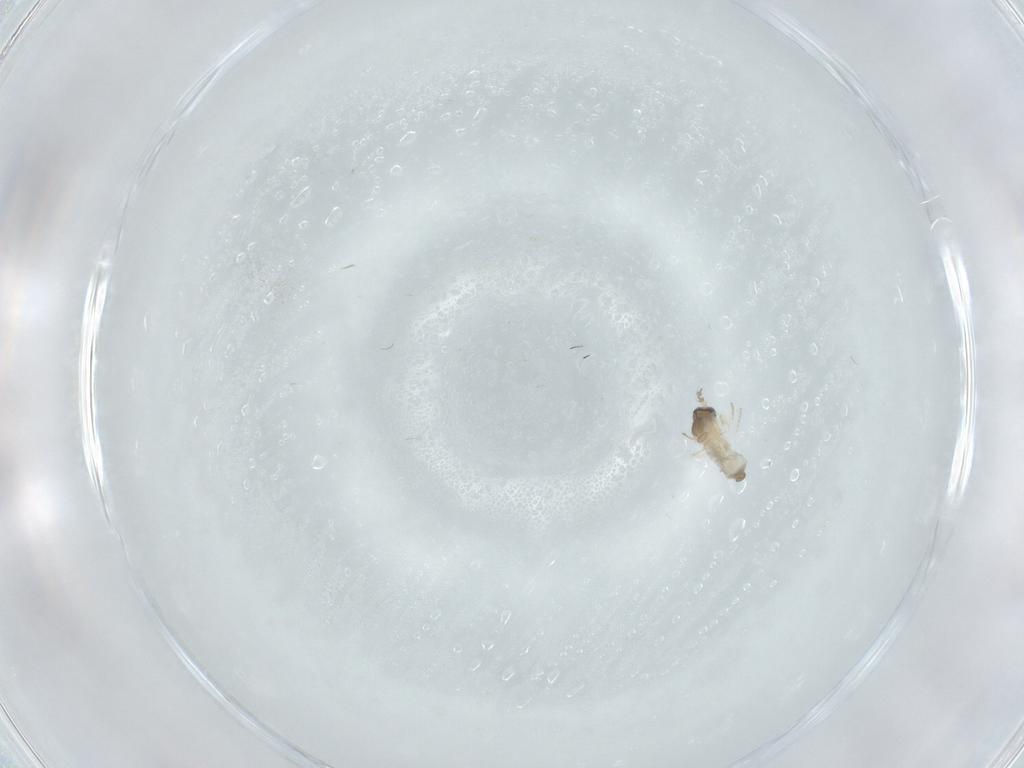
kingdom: Animalia
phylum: Arthropoda
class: Insecta
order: Diptera
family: Cecidomyiidae
